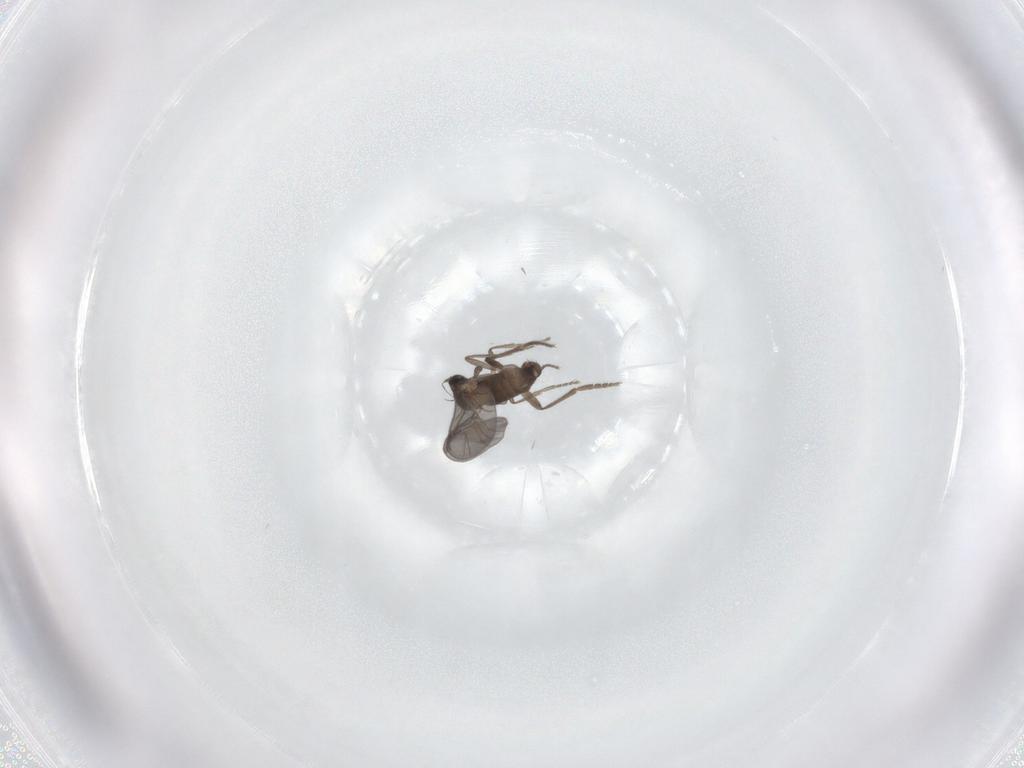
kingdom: Animalia
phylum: Arthropoda
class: Insecta
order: Diptera
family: Phoridae
